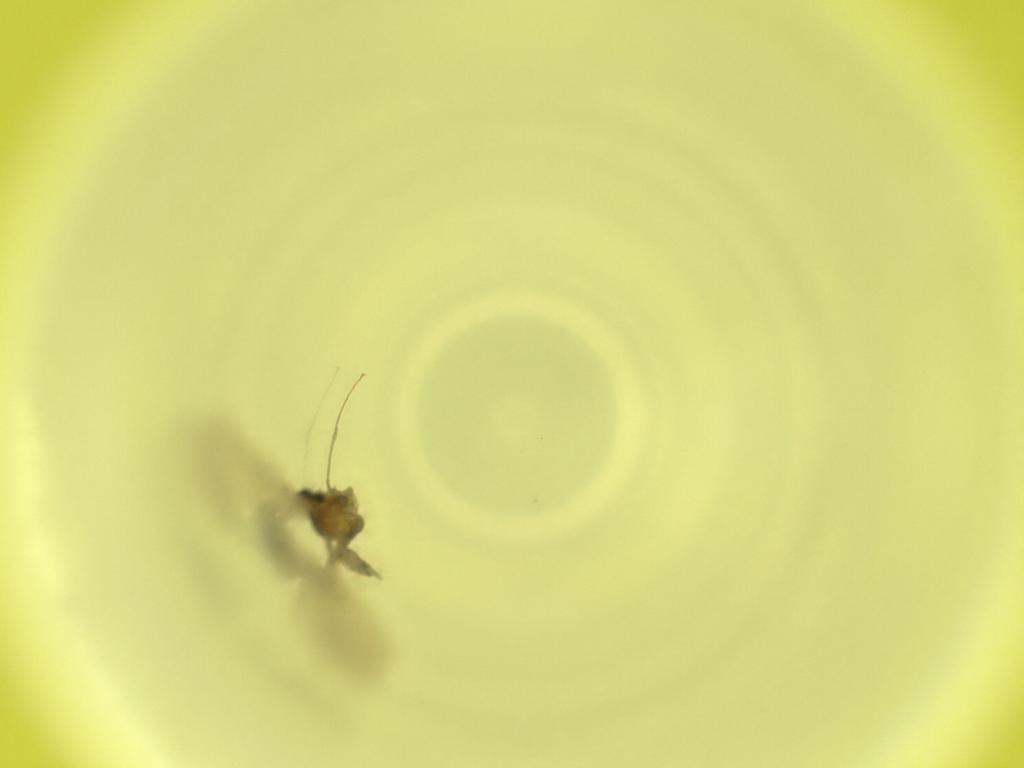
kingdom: Animalia
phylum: Arthropoda
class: Insecta
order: Diptera
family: Cecidomyiidae
